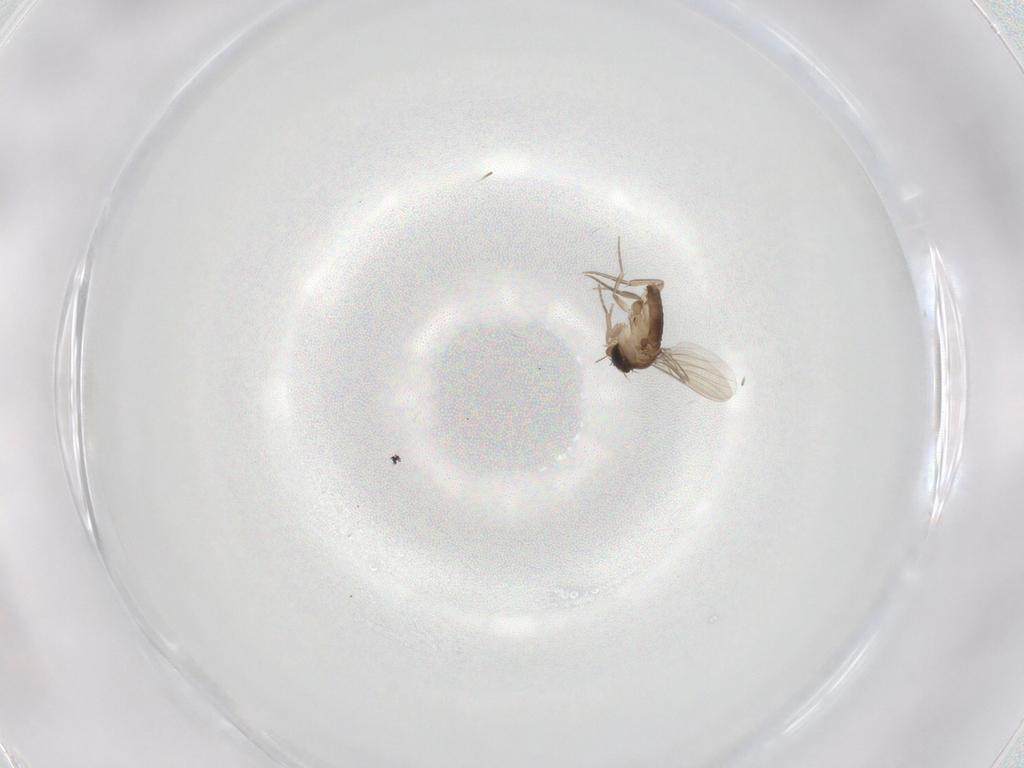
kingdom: Animalia
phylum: Arthropoda
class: Insecta
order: Diptera
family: Phoridae
